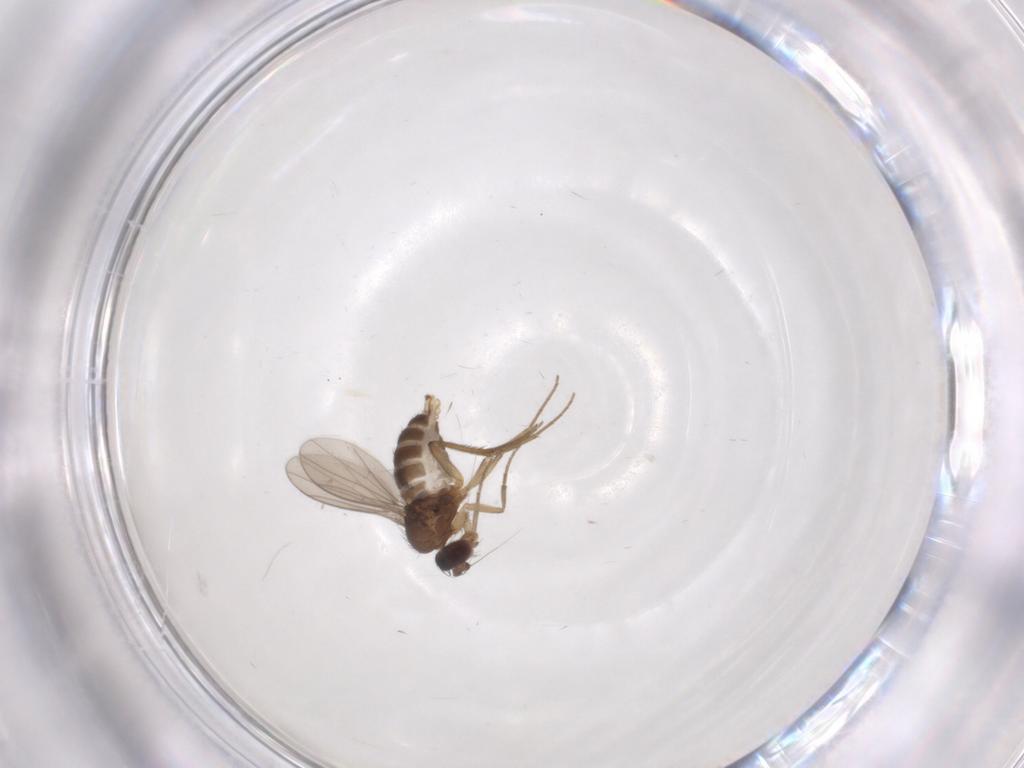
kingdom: Animalia
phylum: Arthropoda
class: Insecta
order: Diptera
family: Dolichopodidae
